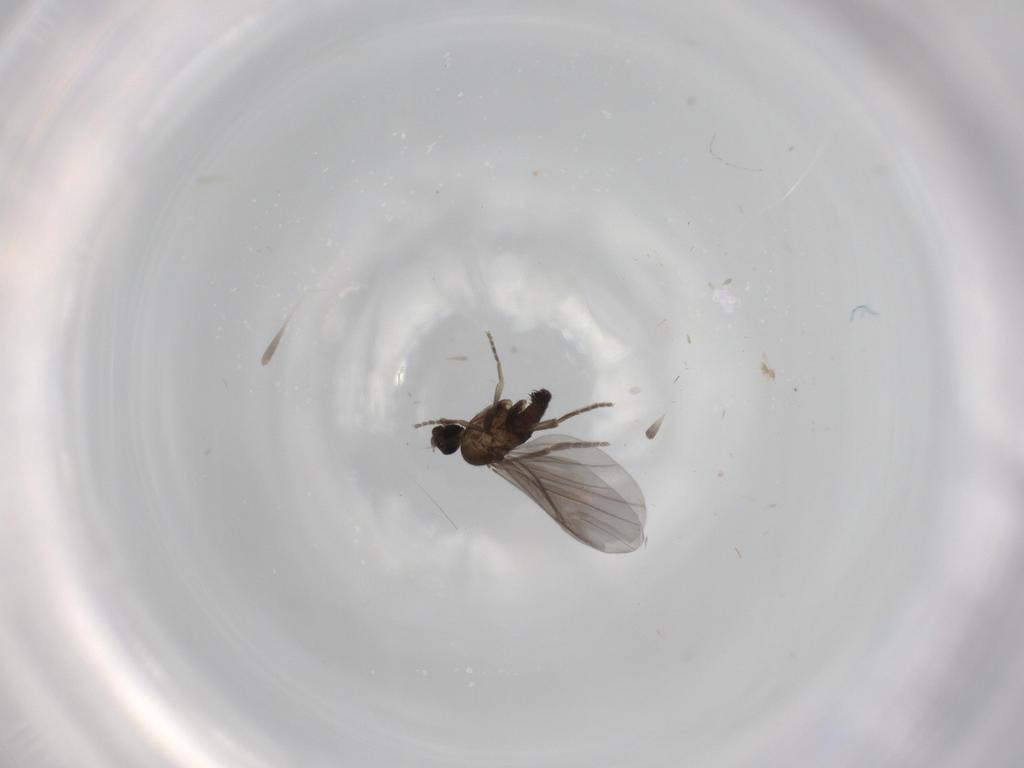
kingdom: Animalia
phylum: Arthropoda
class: Insecta
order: Diptera
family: Phoridae
